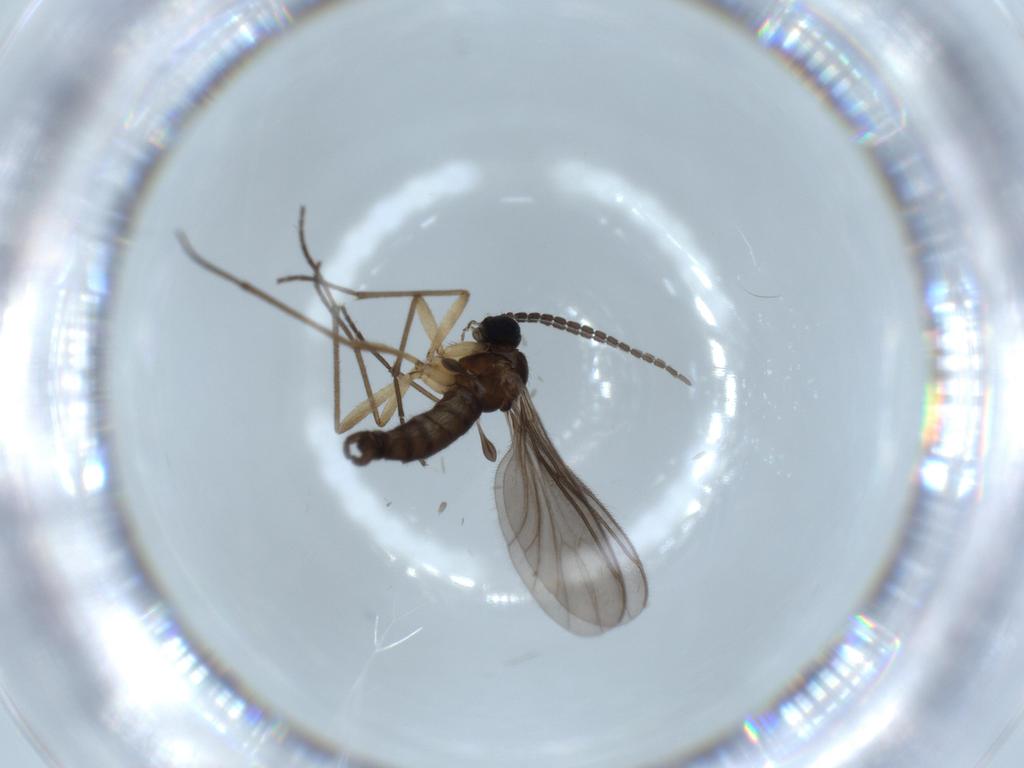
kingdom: Animalia
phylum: Arthropoda
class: Insecta
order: Diptera
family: Sciaridae
